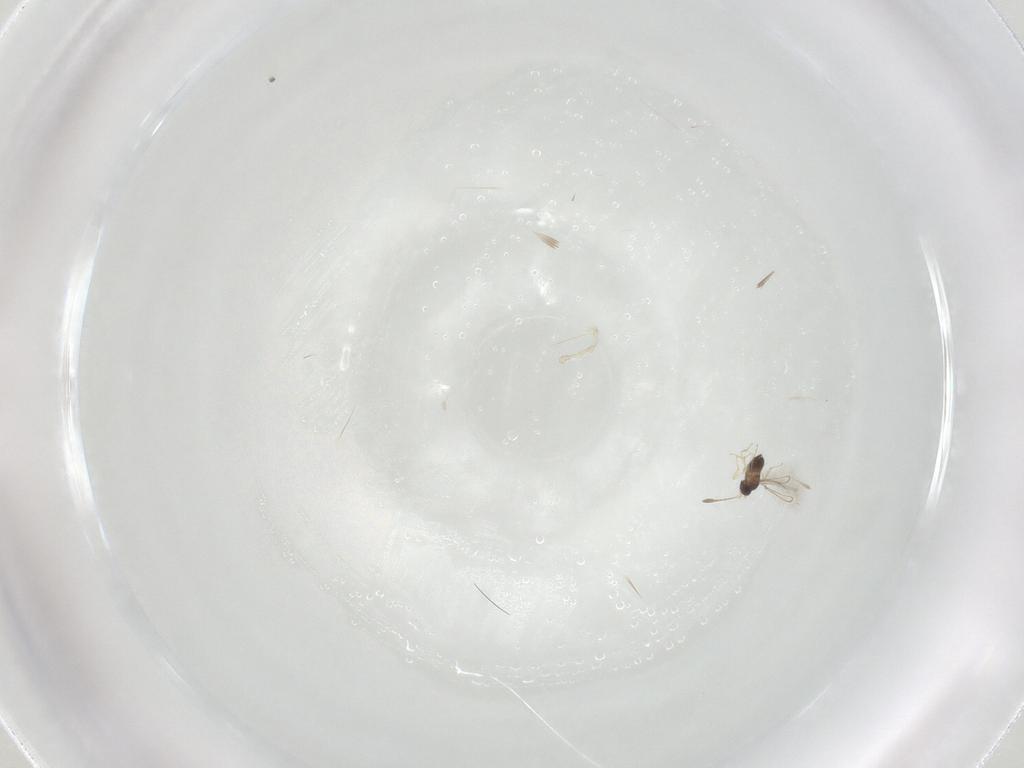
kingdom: Animalia
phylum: Arthropoda
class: Insecta
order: Hymenoptera
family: Mymaridae
